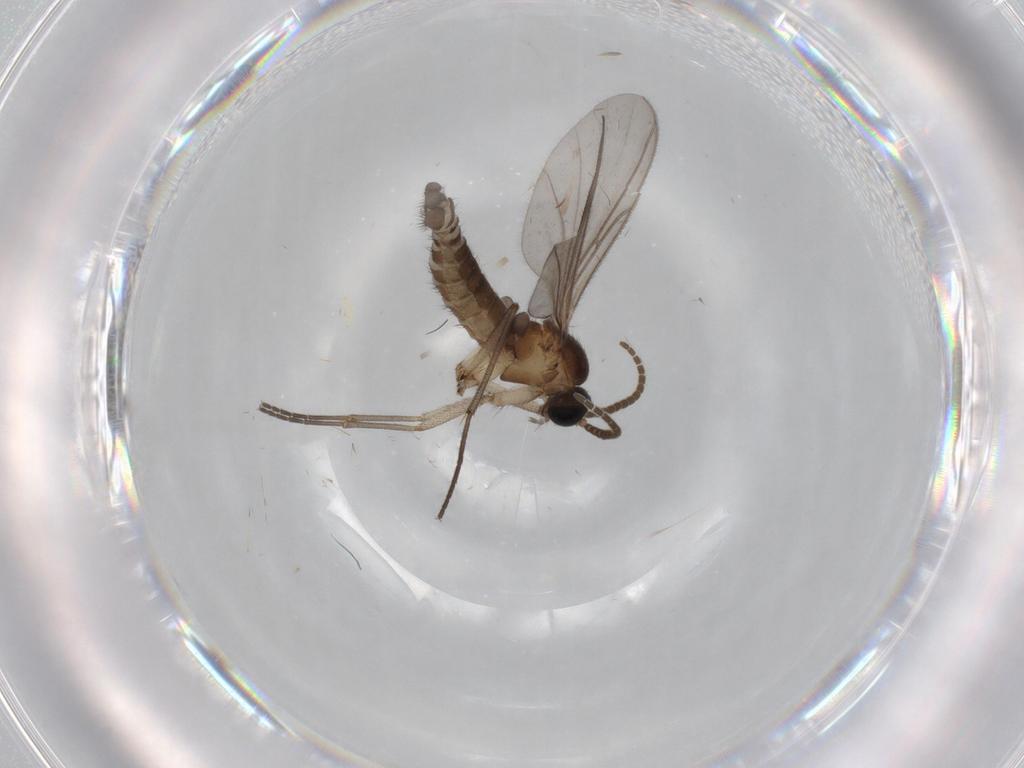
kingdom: Animalia
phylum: Arthropoda
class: Insecta
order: Diptera
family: Cecidomyiidae
